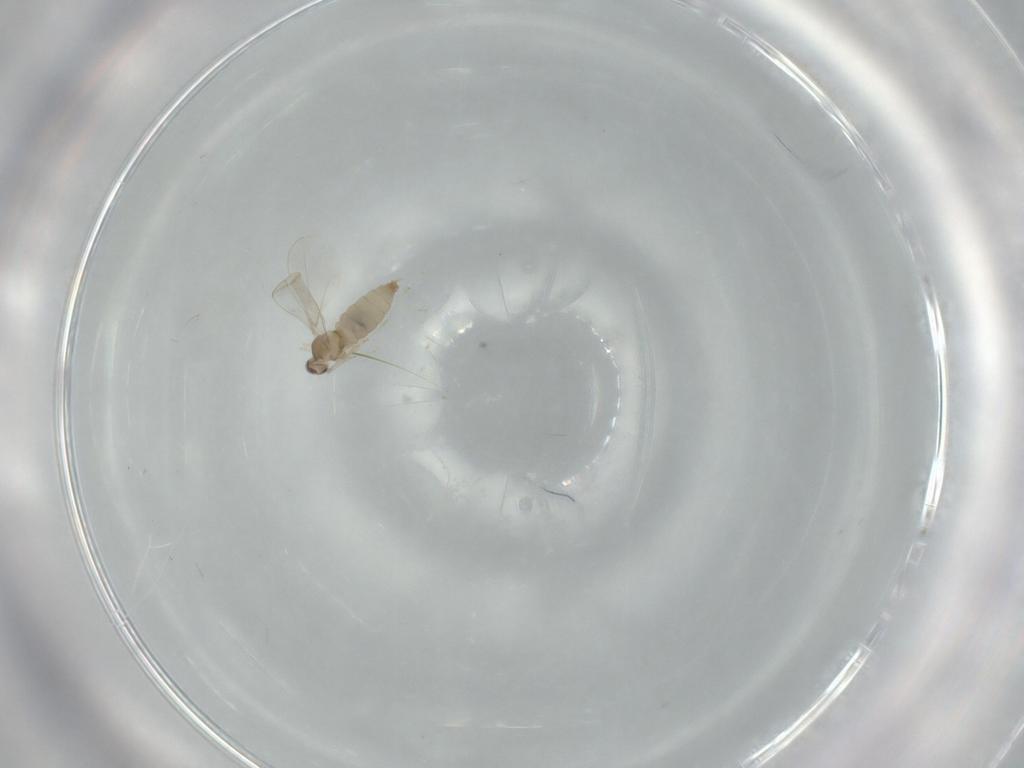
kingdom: Animalia
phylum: Arthropoda
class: Insecta
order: Diptera
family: Cecidomyiidae
